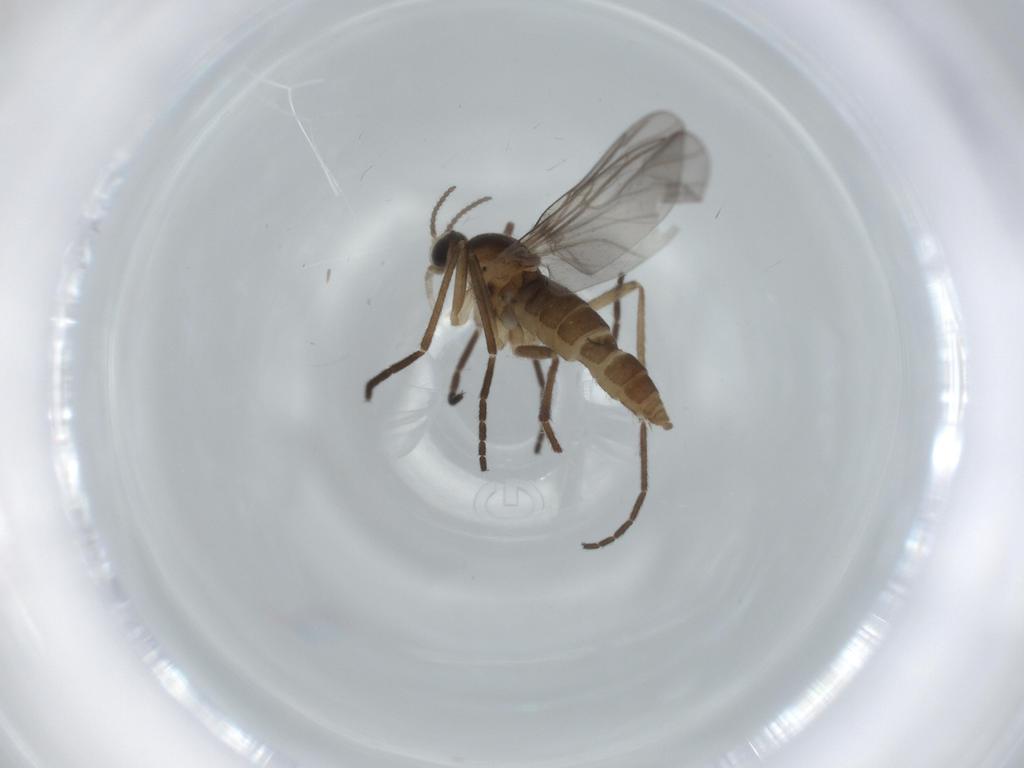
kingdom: Animalia
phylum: Arthropoda
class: Insecta
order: Diptera
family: Cecidomyiidae
